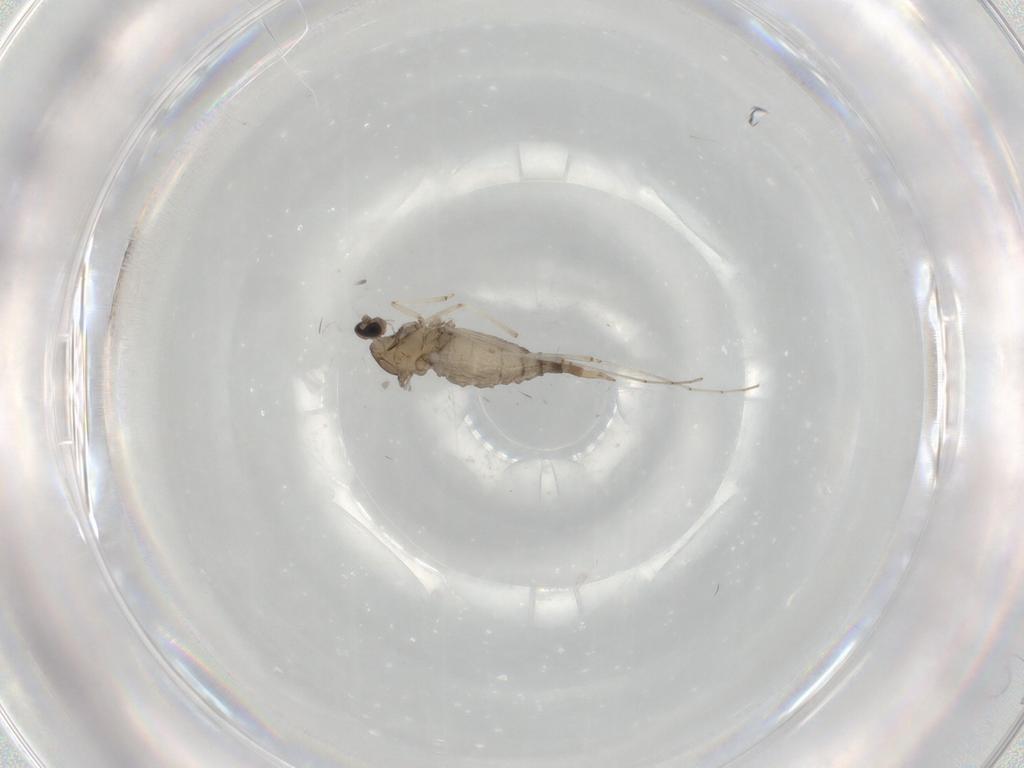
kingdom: Animalia
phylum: Arthropoda
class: Insecta
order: Diptera
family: Cecidomyiidae
